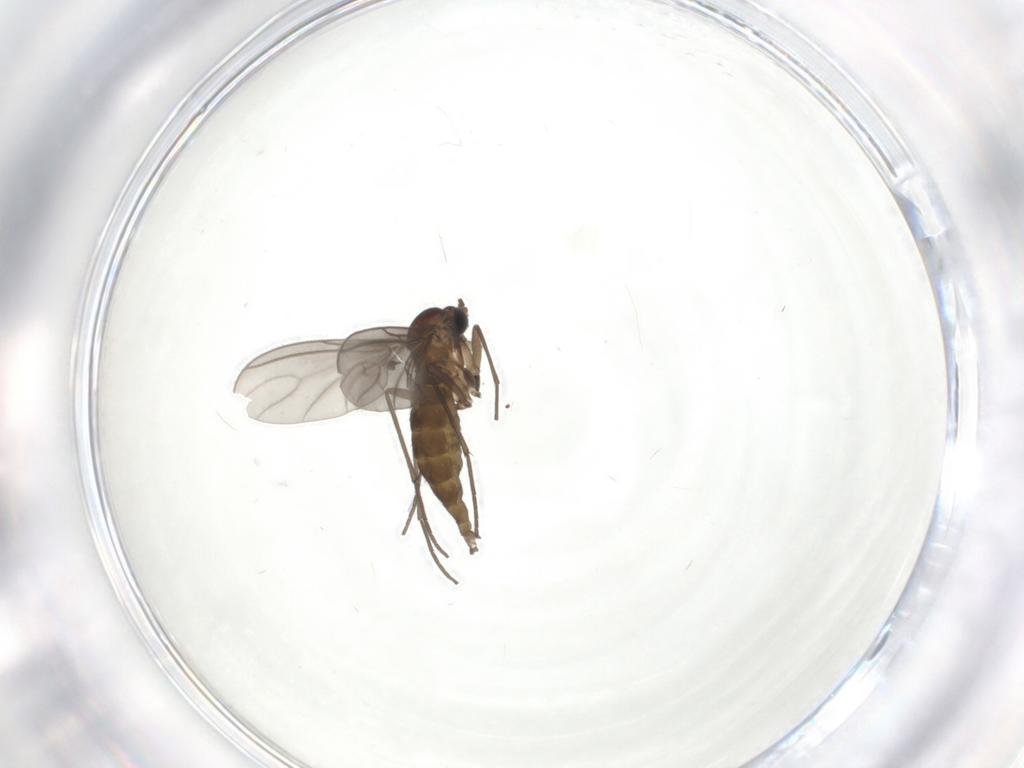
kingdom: Animalia
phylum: Arthropoda
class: Insecta
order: Diptera
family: Sciaridae
